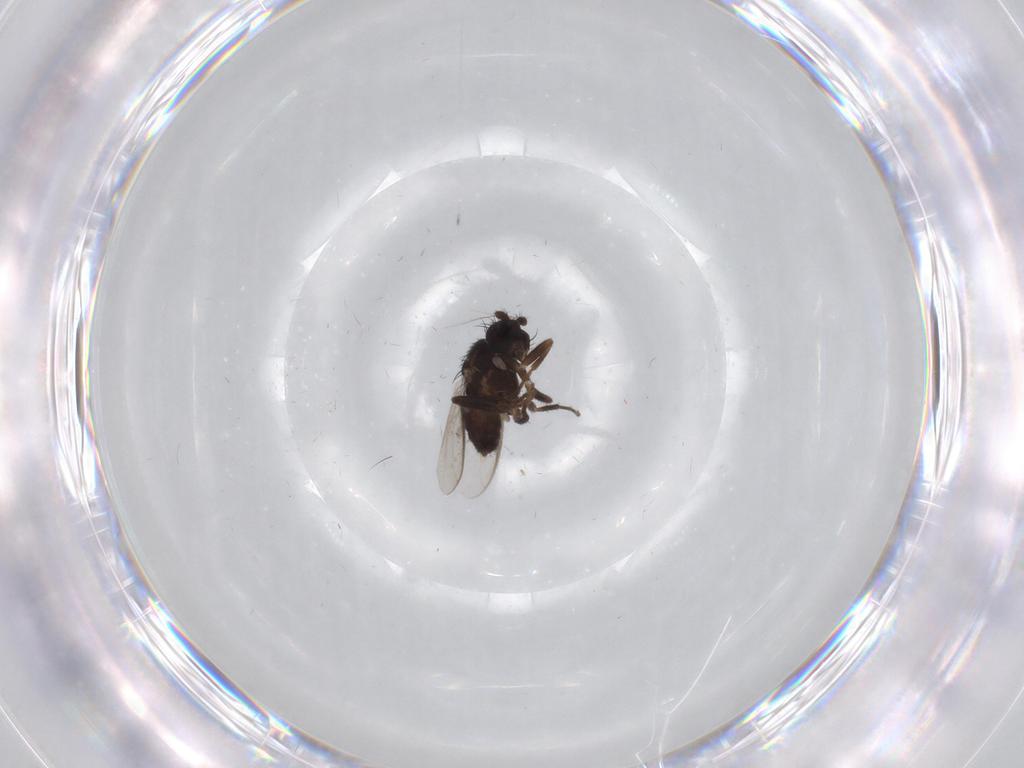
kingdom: Animalia
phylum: Arthropoda
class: Insecta
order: Diptera
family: Sphaeroceridae
